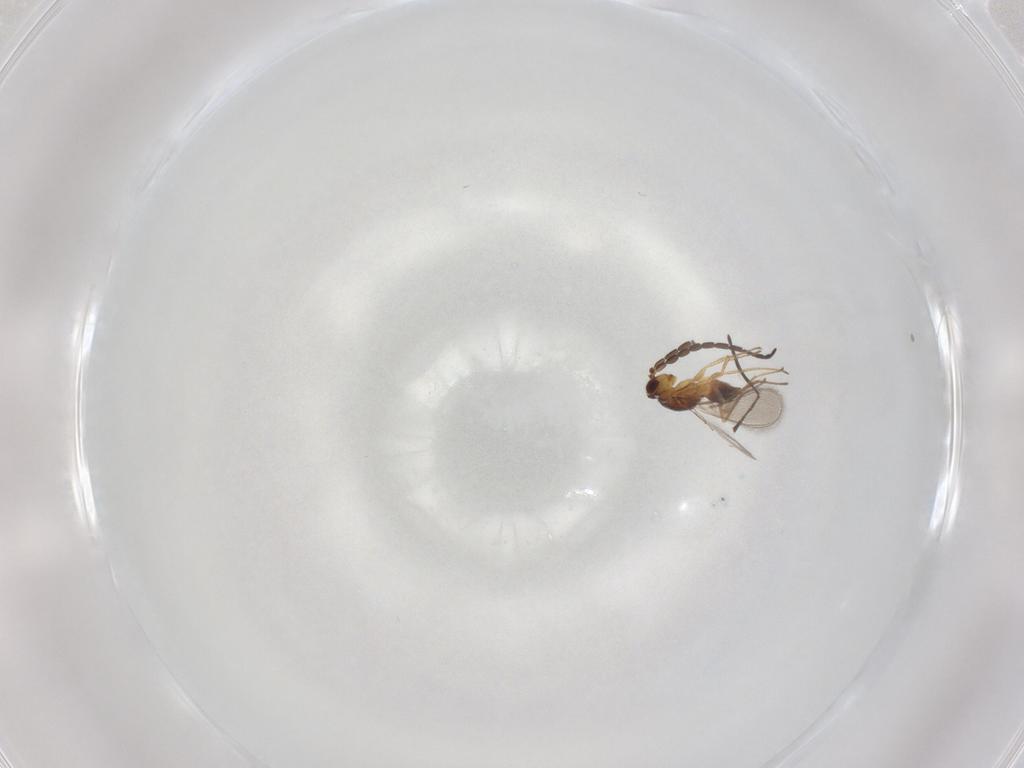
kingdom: Animalia
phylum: Arthropoda
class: Insecta
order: Hymenoptera
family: Mymaridae
